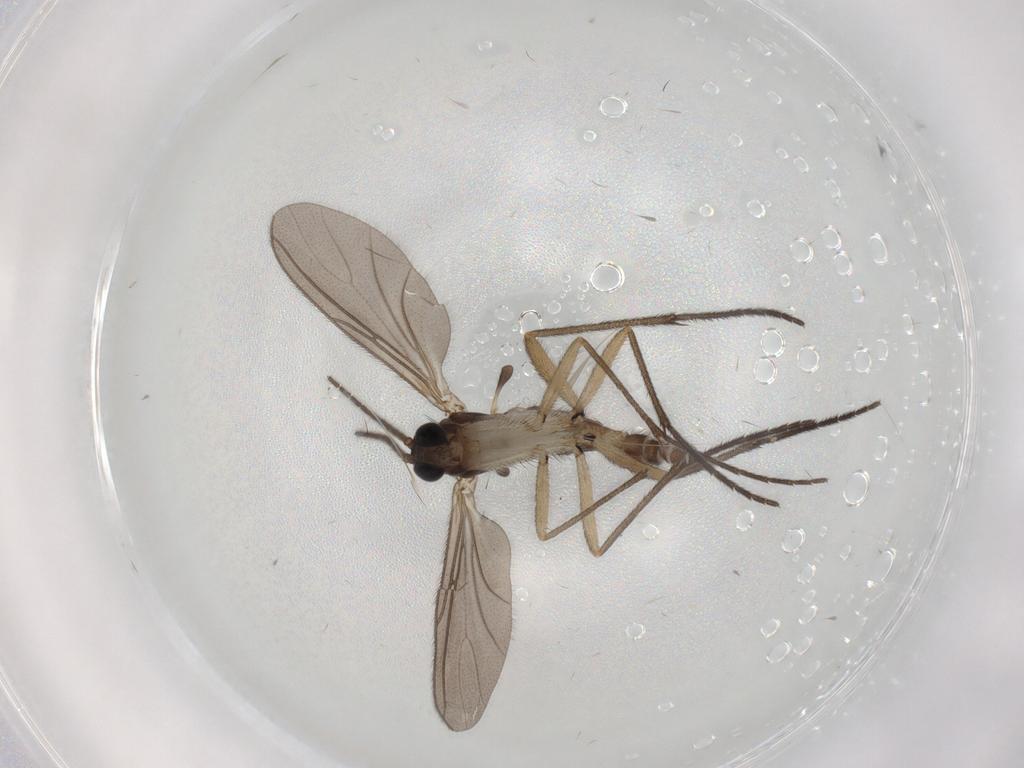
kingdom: Animalia
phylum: Arthropoda
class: Insecta
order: Diptera
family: Sciaridae
